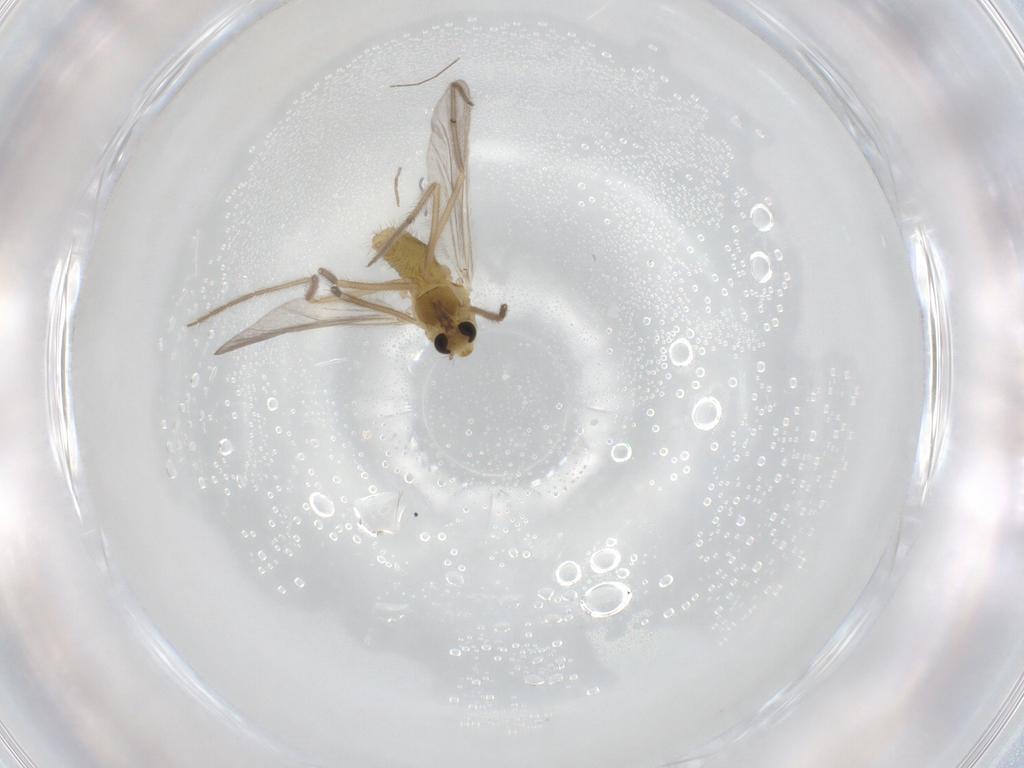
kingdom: Animalia
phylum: Arthropoda
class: Insecta
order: Diptera
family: Chironomidae
